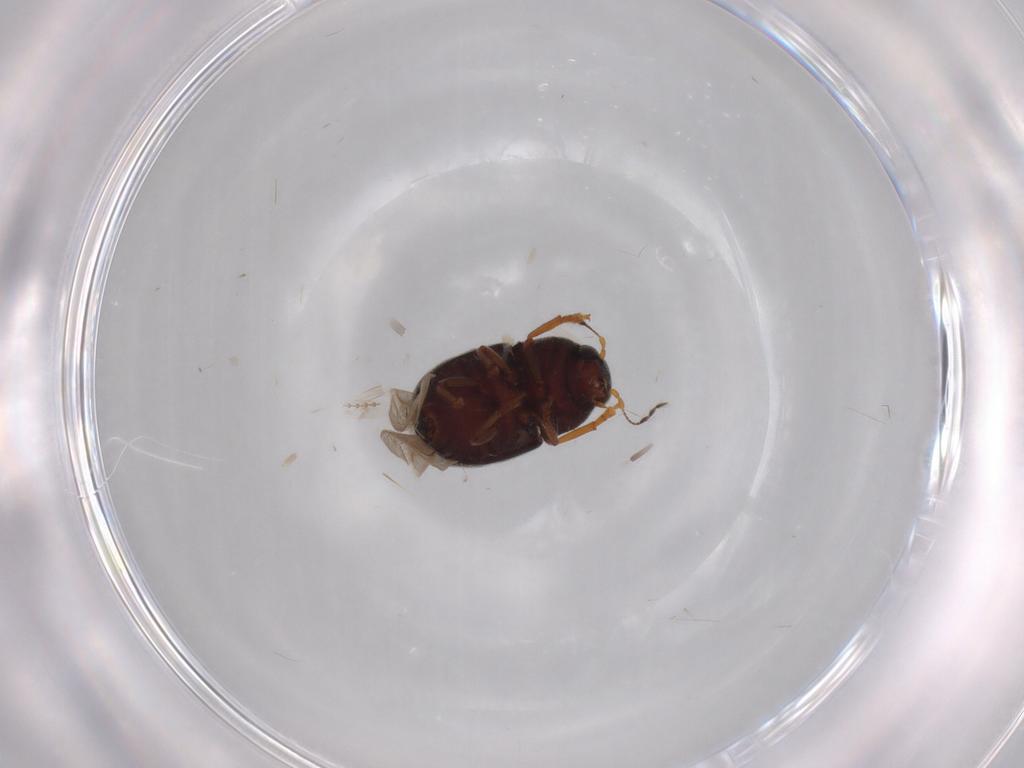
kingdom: Animalia
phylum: Arthropoda
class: Insecta
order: Coleoptera
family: Mycetophagidae
